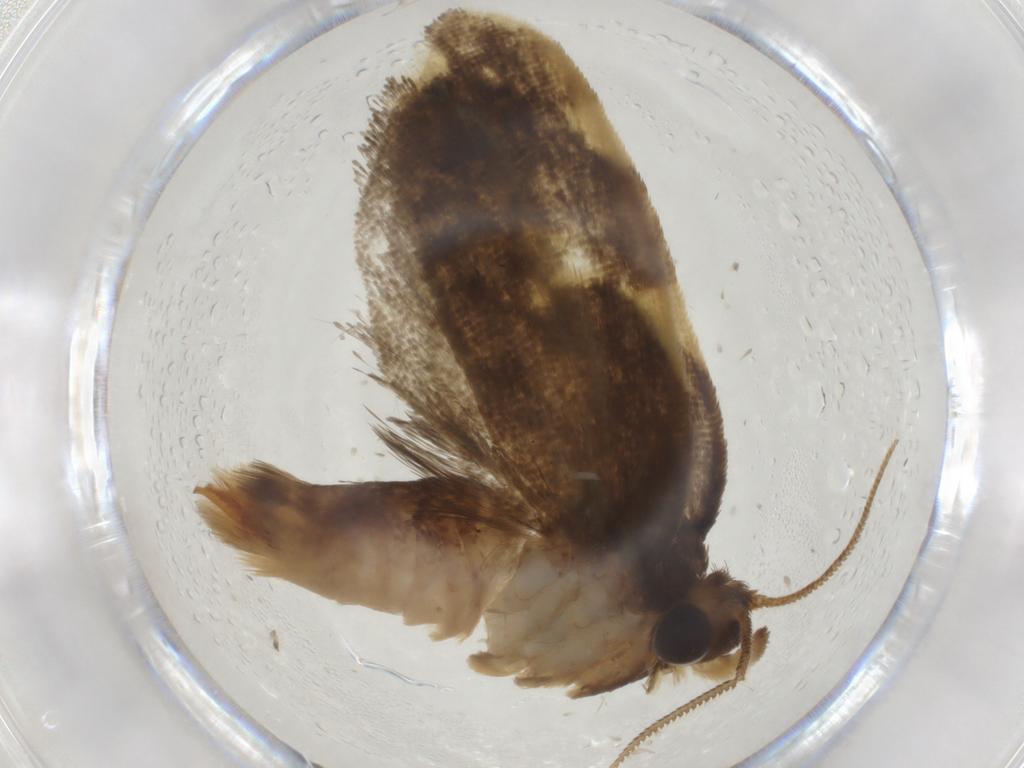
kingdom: Animalia
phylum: Arthropoda
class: Insecta
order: Lepidoptera
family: Psychidae
